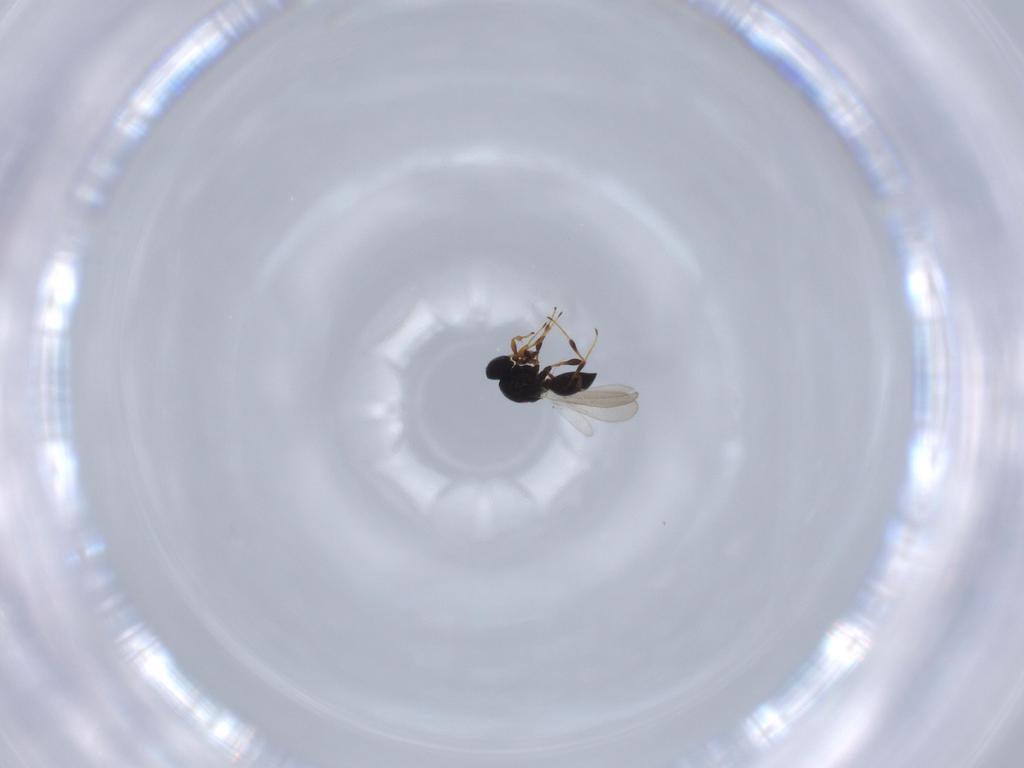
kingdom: Animalia
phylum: Arthropoda
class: Insecta
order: Hymenoptera
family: Platygastridae
